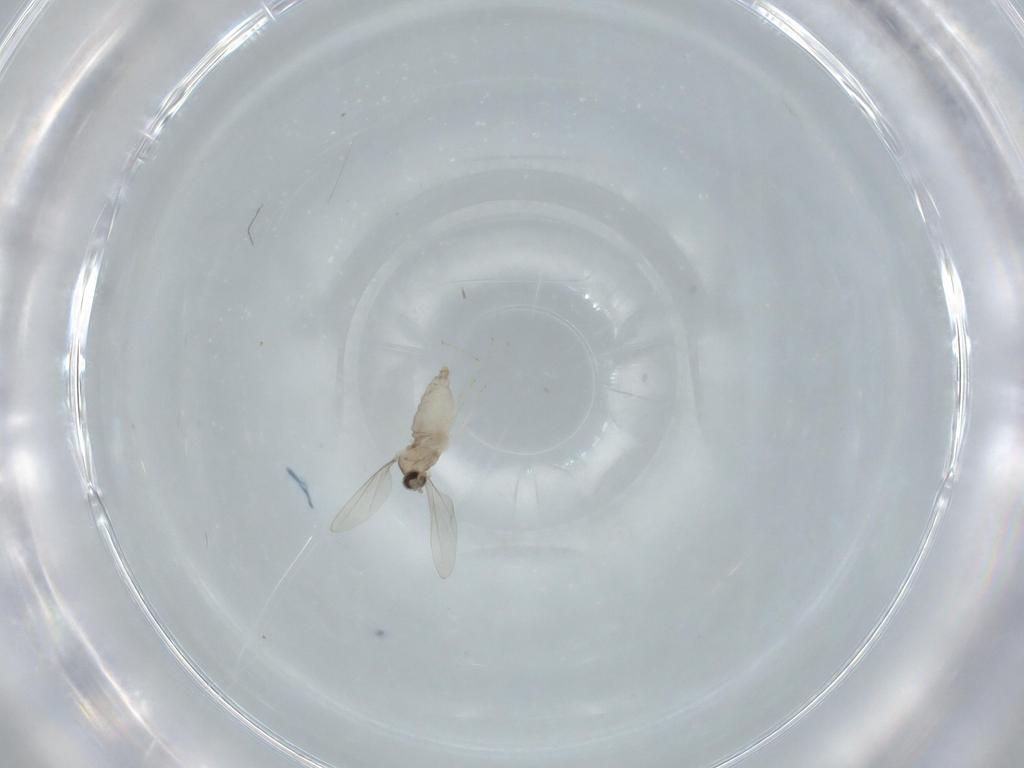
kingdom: Animalia
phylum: Arthropoda
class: Insecta
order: Diptera
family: Cecidomyiidae
